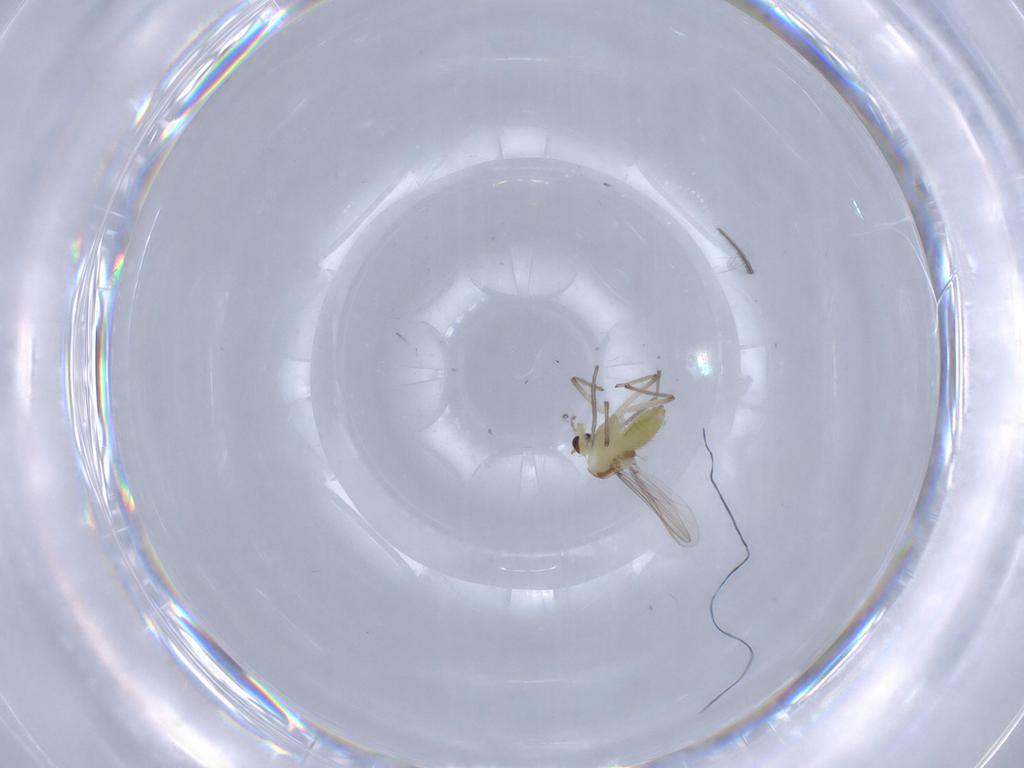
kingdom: Animalia
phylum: Arthropoda
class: Insecta
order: Diptera
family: Chironomidae
